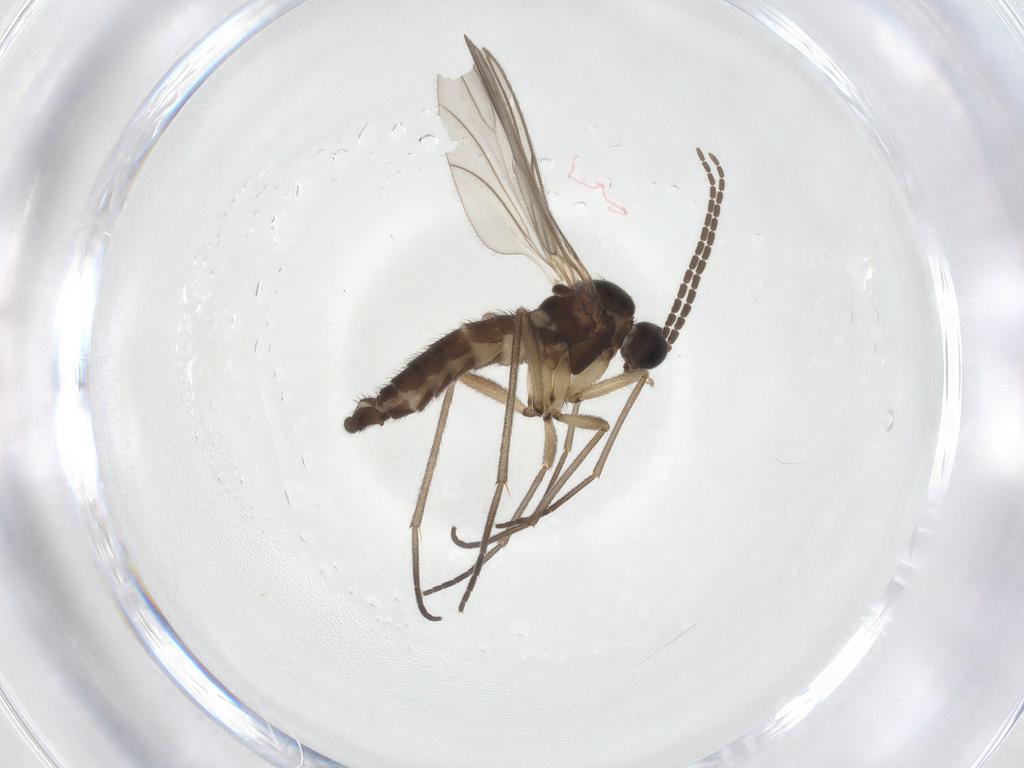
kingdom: Animalia
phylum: Arthropoda
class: Insecta
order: Diptera
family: Sciaridae
